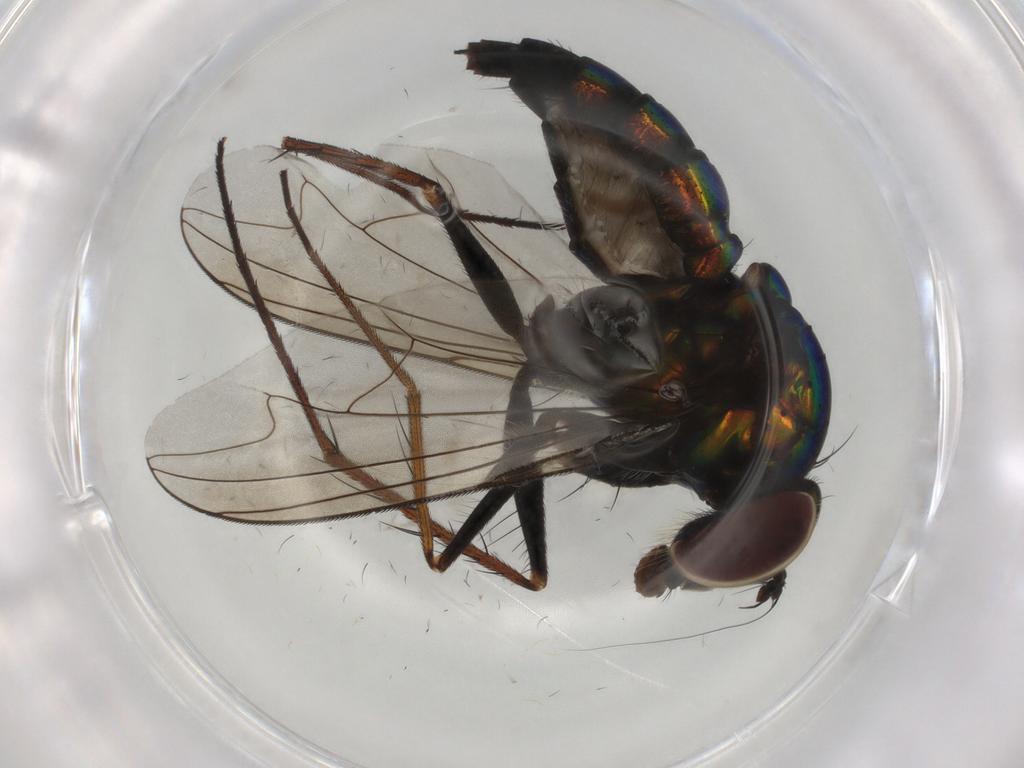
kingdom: Animalia
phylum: Arthropoda
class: Insecta
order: Diptera
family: Dolichopodidae
